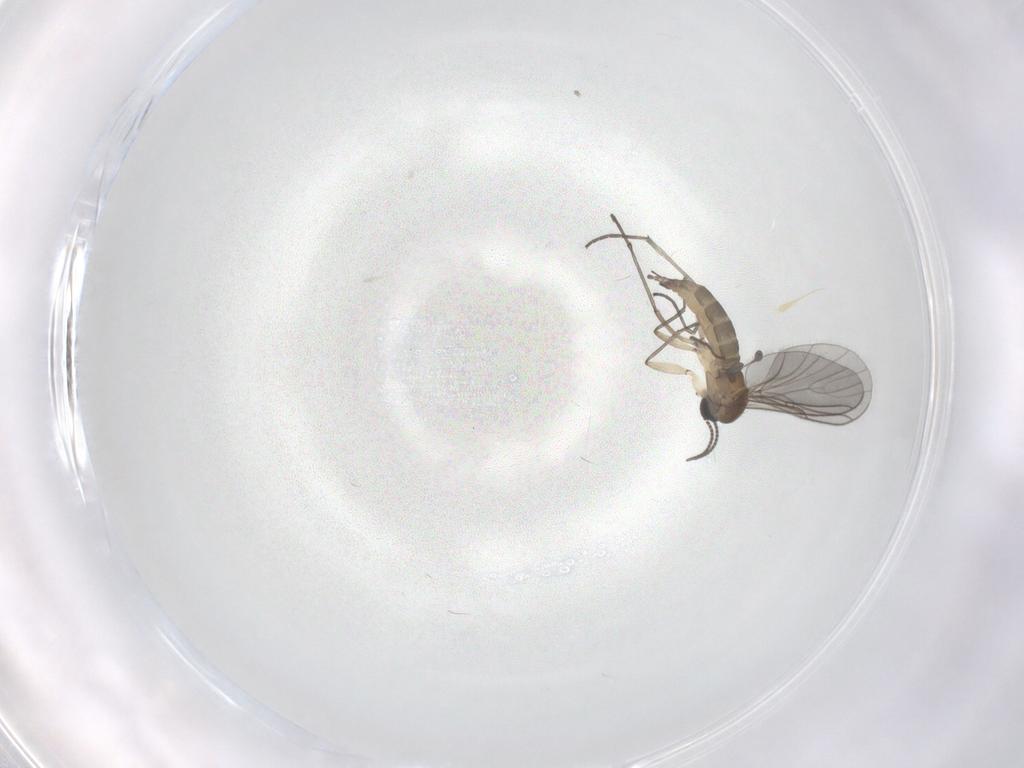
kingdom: Animalia
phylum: Arthropoda
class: Insecta
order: Diptera
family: Sciaridae
